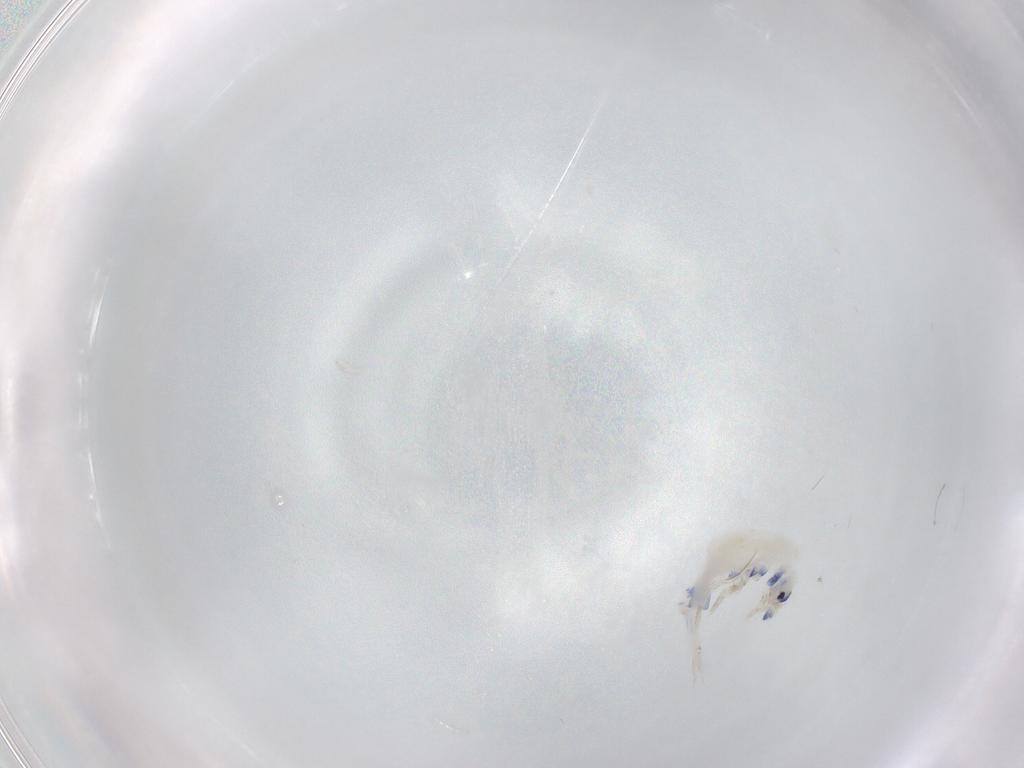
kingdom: Animalia
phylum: Arthropoda
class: Collembola
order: Entomobryomorpha
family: Entomobryidae
